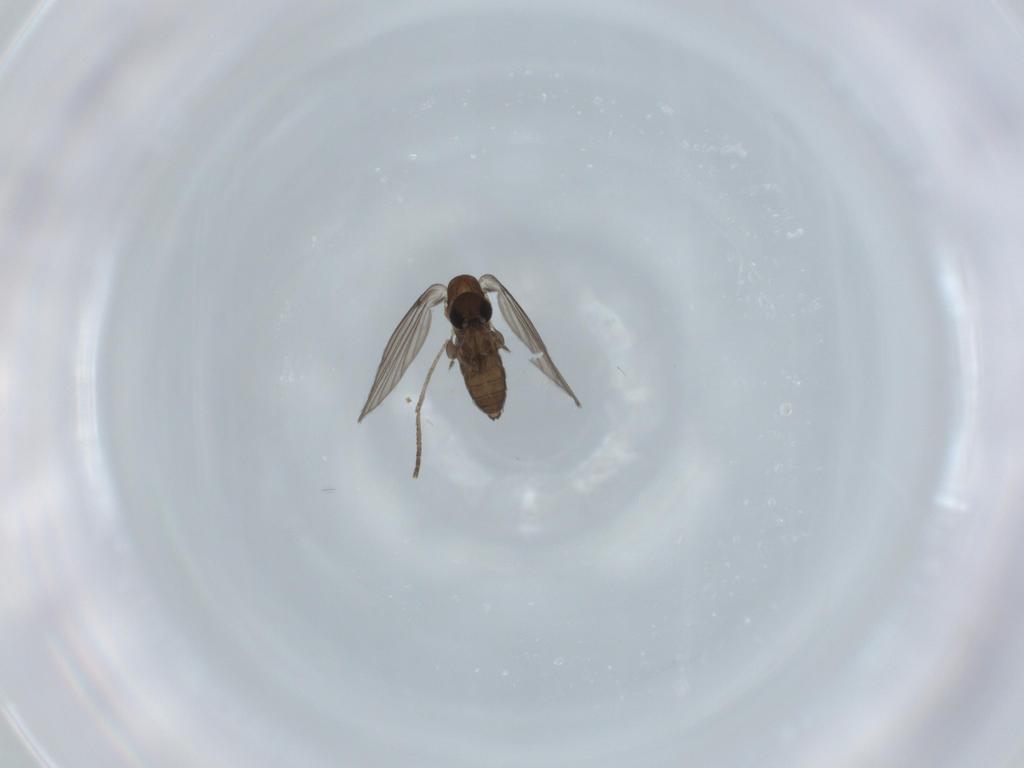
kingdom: Animalia
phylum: Arthropoda
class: Insecta
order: Diptera
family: Psychodidae
